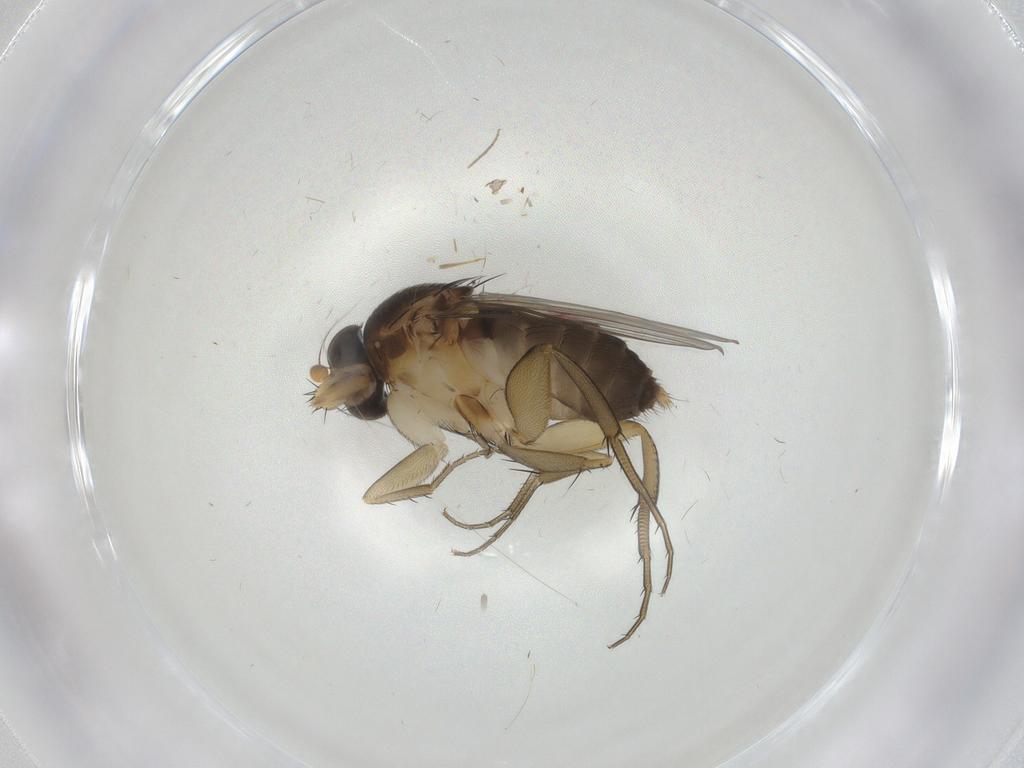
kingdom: Animalia
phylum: Arthropoda
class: Insecta
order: Diptera
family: Phoridae
